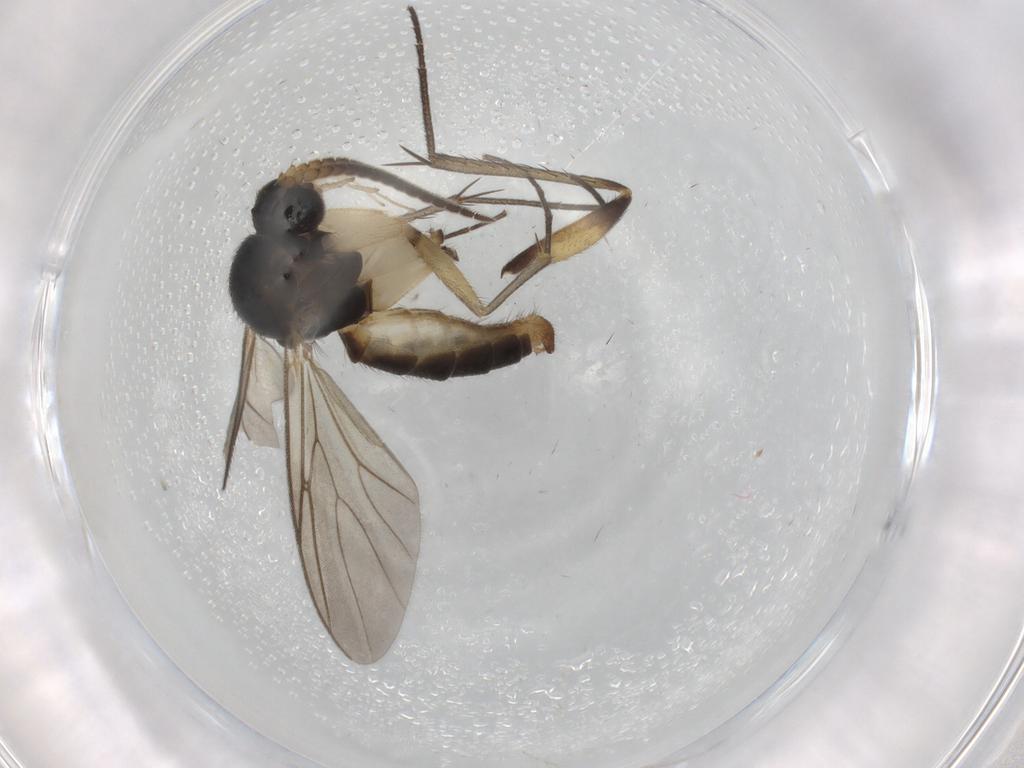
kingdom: Animalia
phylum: Arthropoda
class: Insecta
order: Diptera
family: Mycetophilidae
